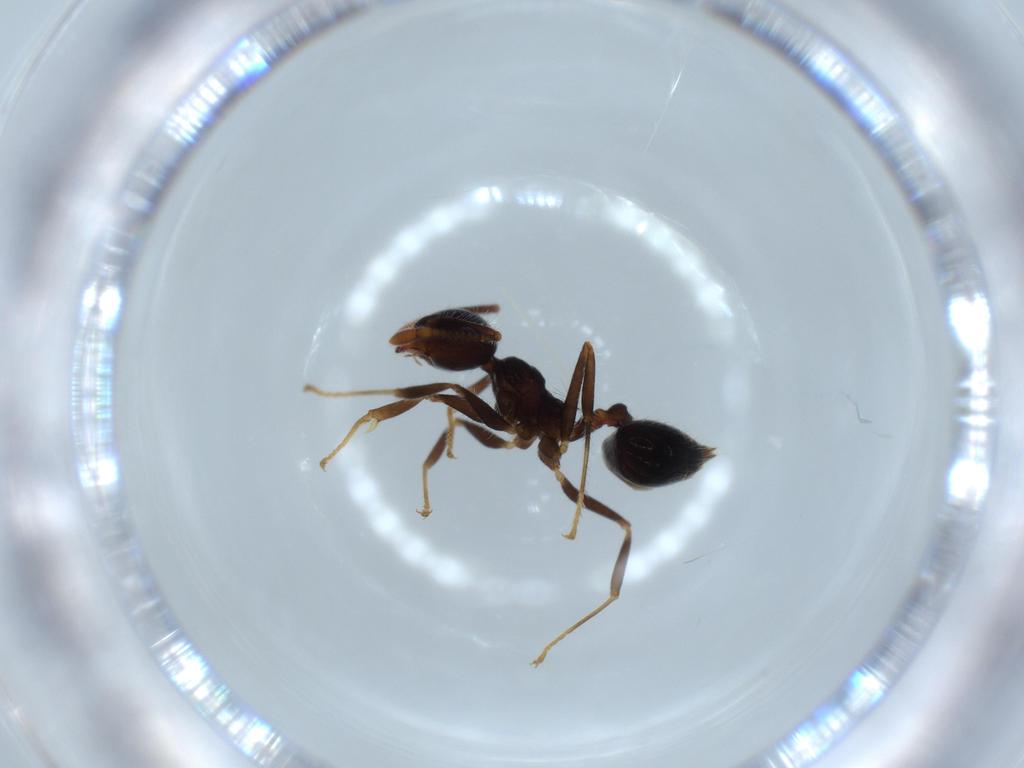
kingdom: Animalia
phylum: Arthropoda
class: Insecta
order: Hymenoptera
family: Formicidae
